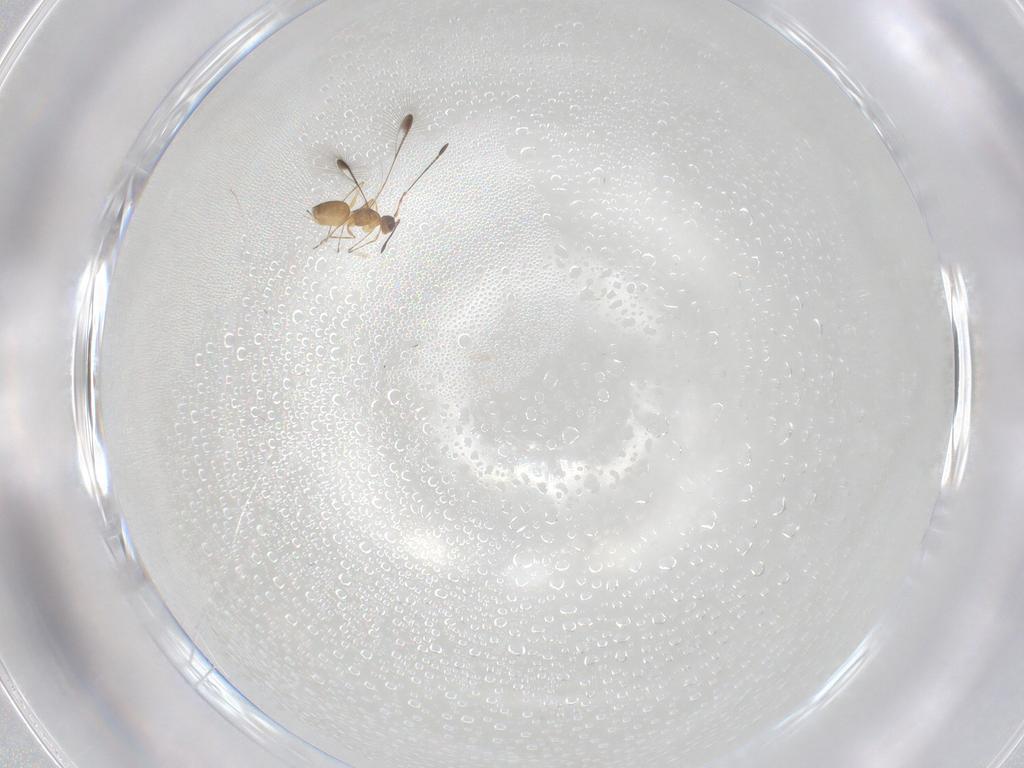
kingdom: Animalia
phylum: Arthropoda
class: Insecta
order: Hymenoptera
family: Mymaridae
